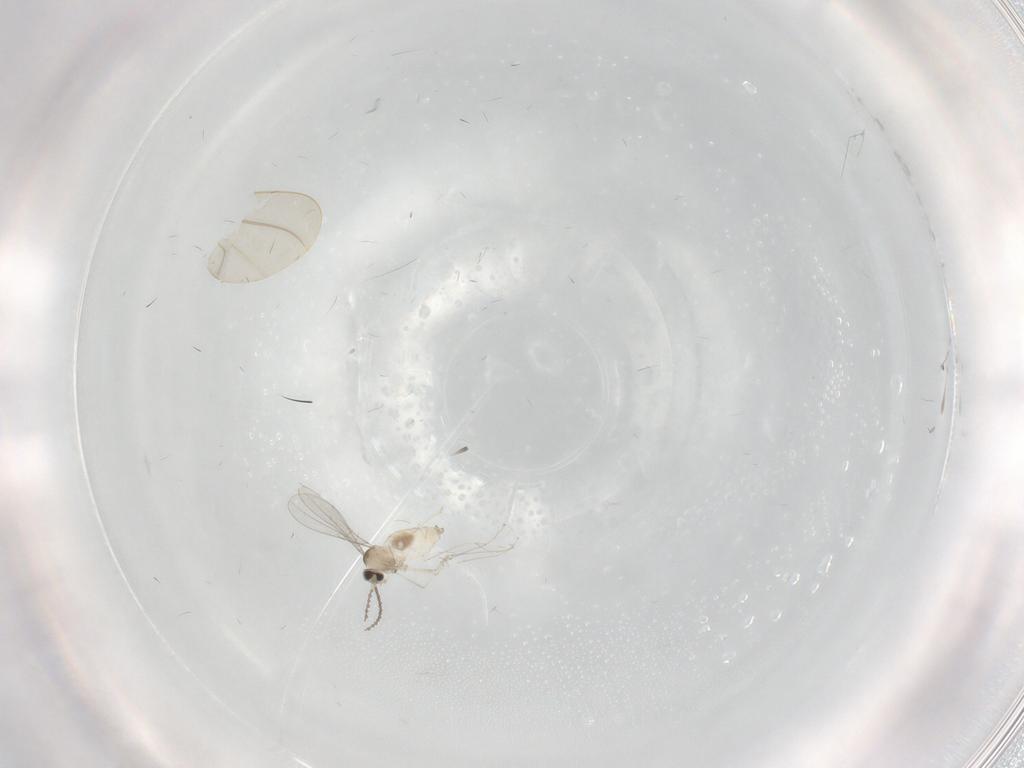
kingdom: Animalia
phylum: Arthropoda
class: Insecta
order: Diptera
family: Cecidomyiidae
